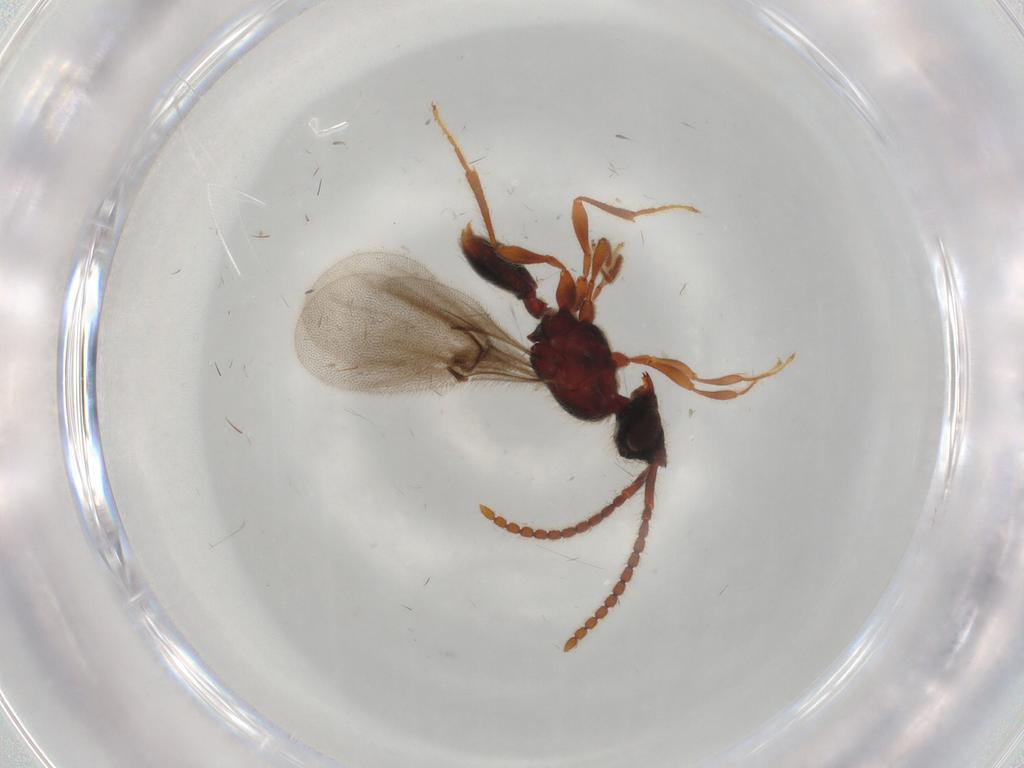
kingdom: Animalia
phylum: Arthropoda
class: Insecta
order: Hymenoptera
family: Diapriidae
